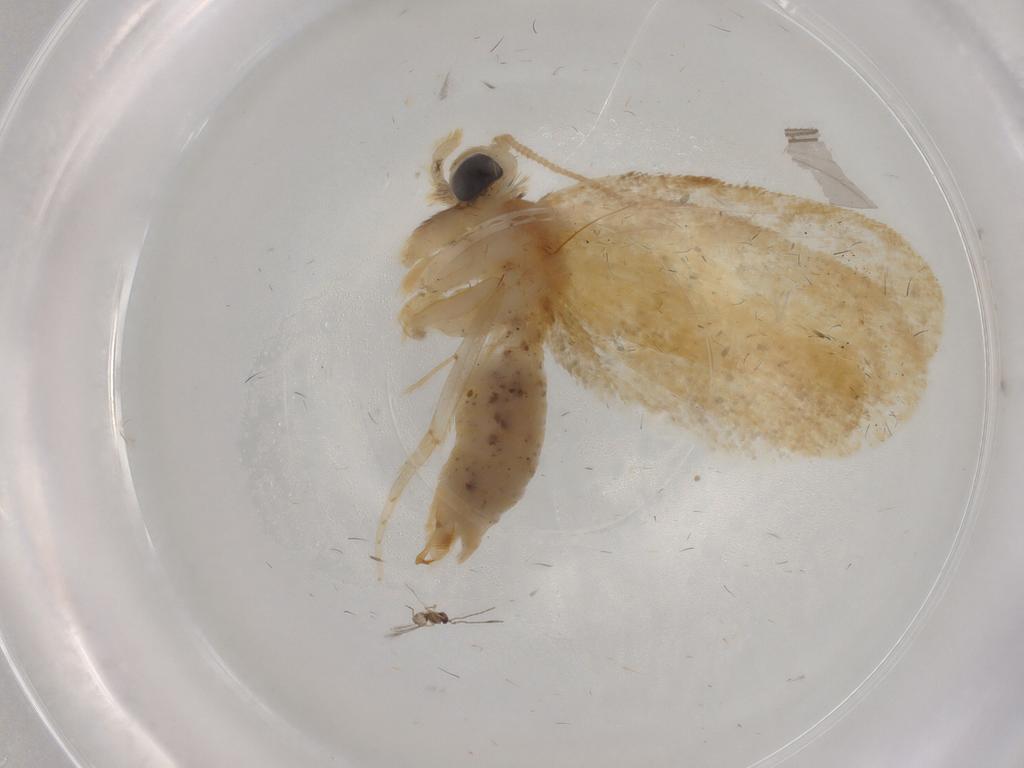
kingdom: Animalia
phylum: Arthropoda
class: Insecta
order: Lepidoptera
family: Psychidae
